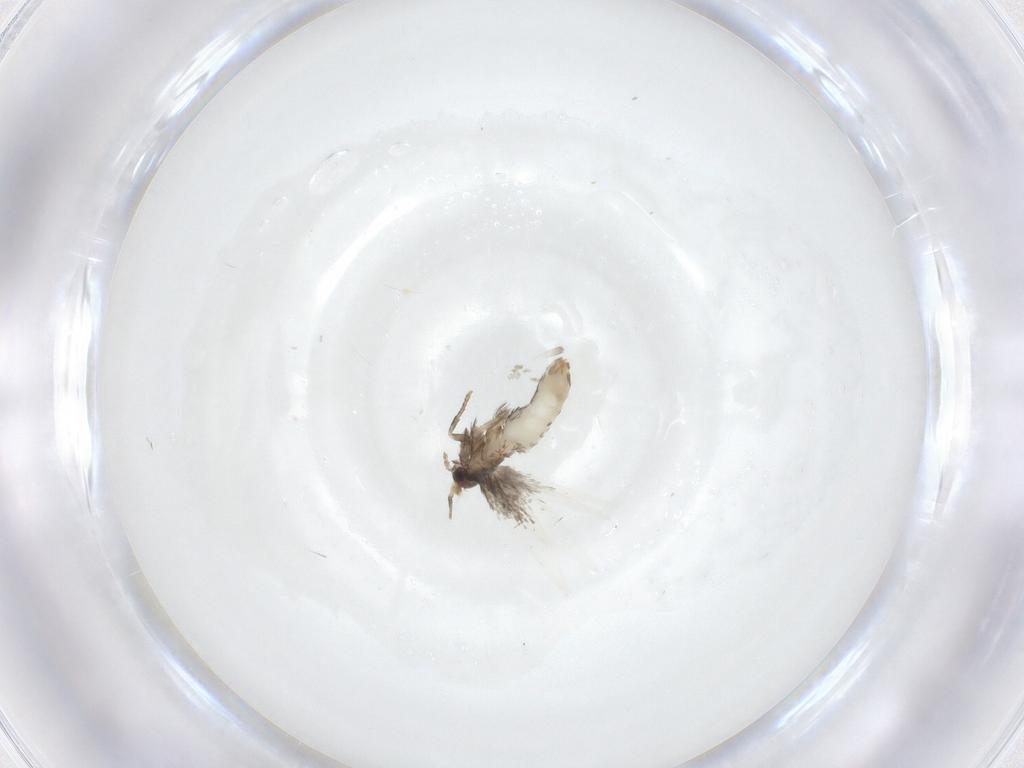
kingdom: Animalia
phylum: Arthropoda
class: Insecta
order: Lepidoptera
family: Nepticulidae
